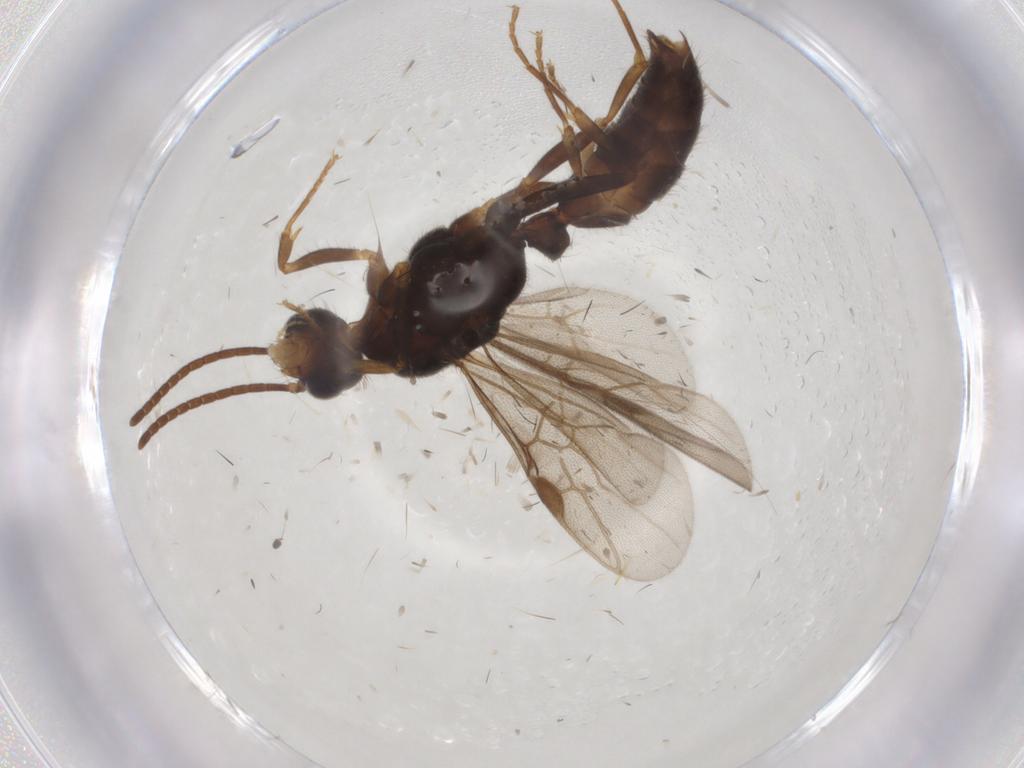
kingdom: Animalia
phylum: Arthropoda
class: Insecta
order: Hymenoptera
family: Formicidae
